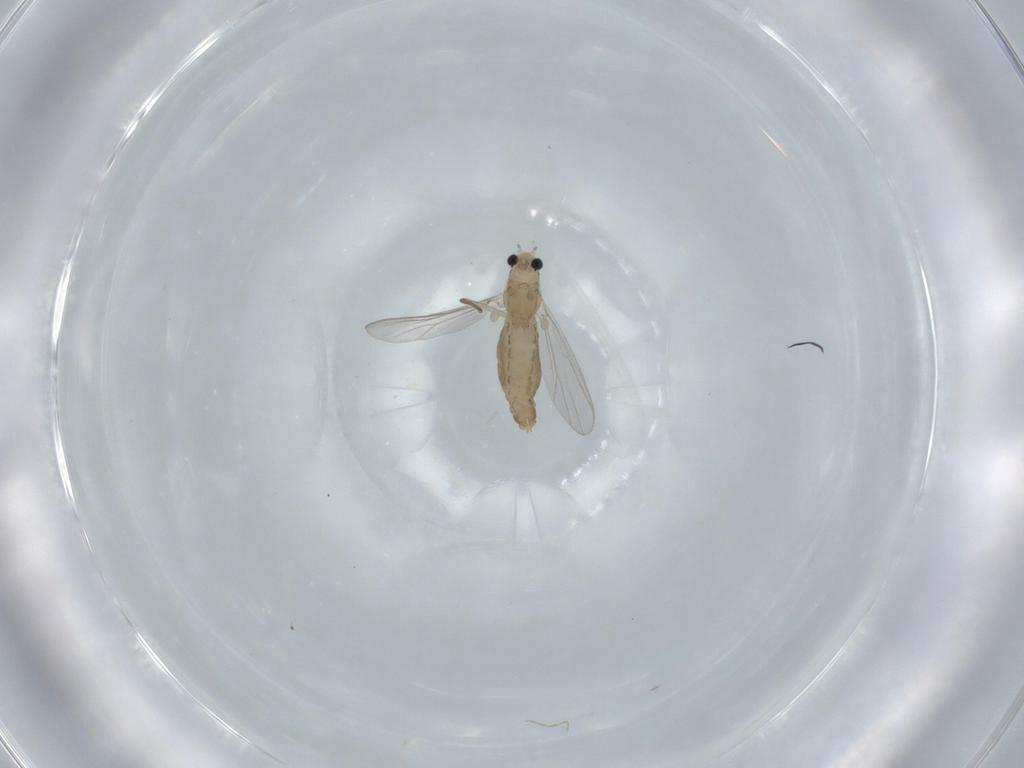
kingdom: Animalia
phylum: Arthropoda
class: Insecta
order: Diptera
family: Chironomidae
